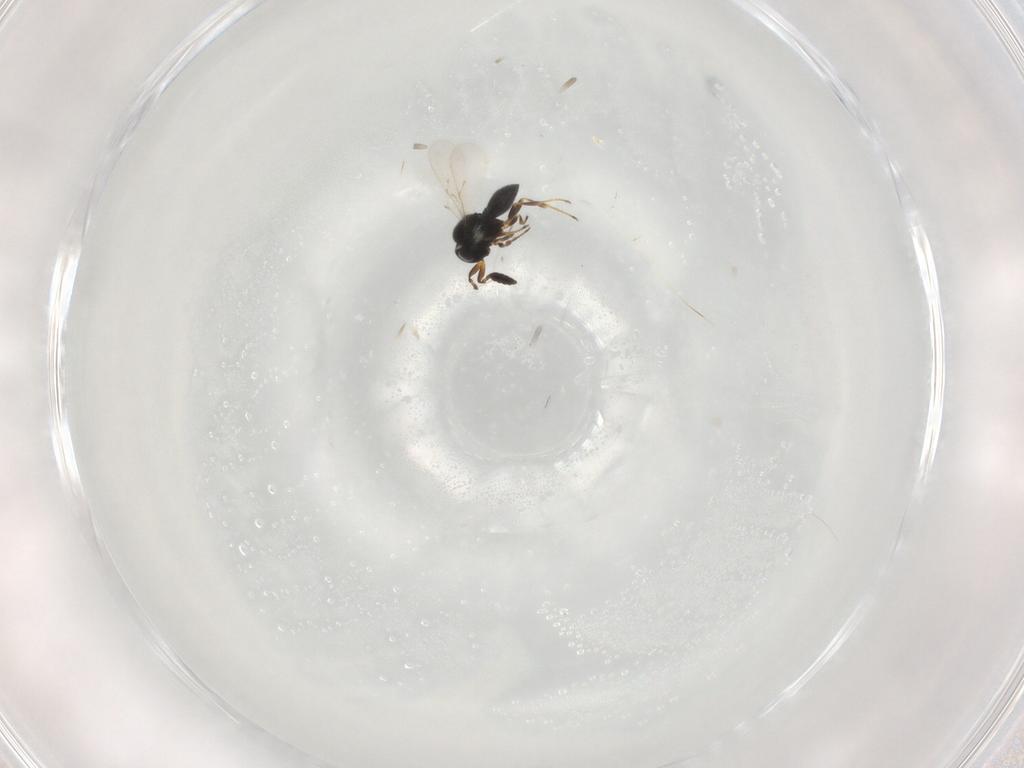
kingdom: Animalia
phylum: Arthropoda
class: Insecta
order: Hymenoptera
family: Scelionidae
